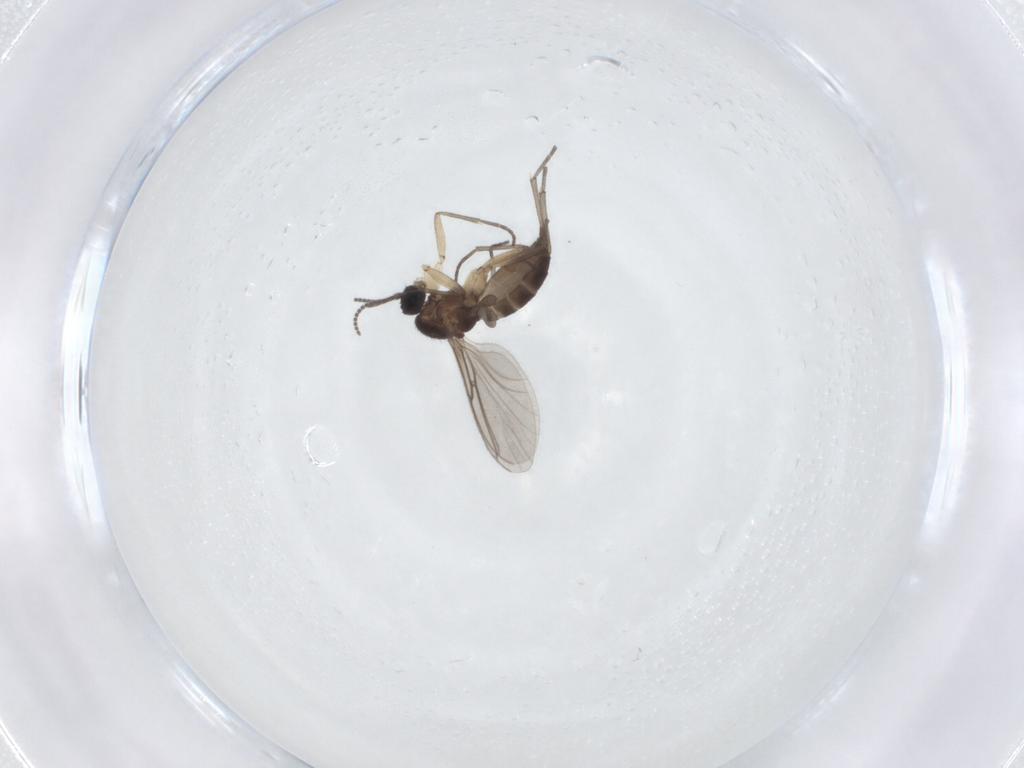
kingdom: Animalia
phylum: Arthropoda
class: Insecta
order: Diptera
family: Sciaridae
